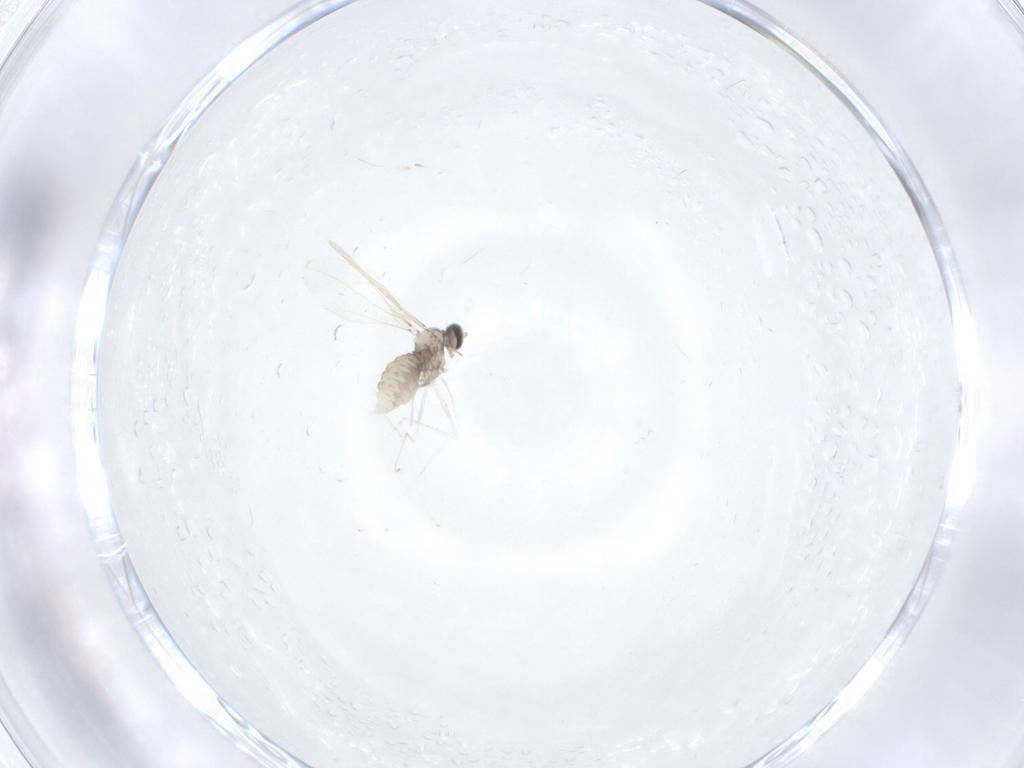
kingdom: Animalia
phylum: Arthropoda
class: Insecta
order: Diptera
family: Cecidomyiidae
